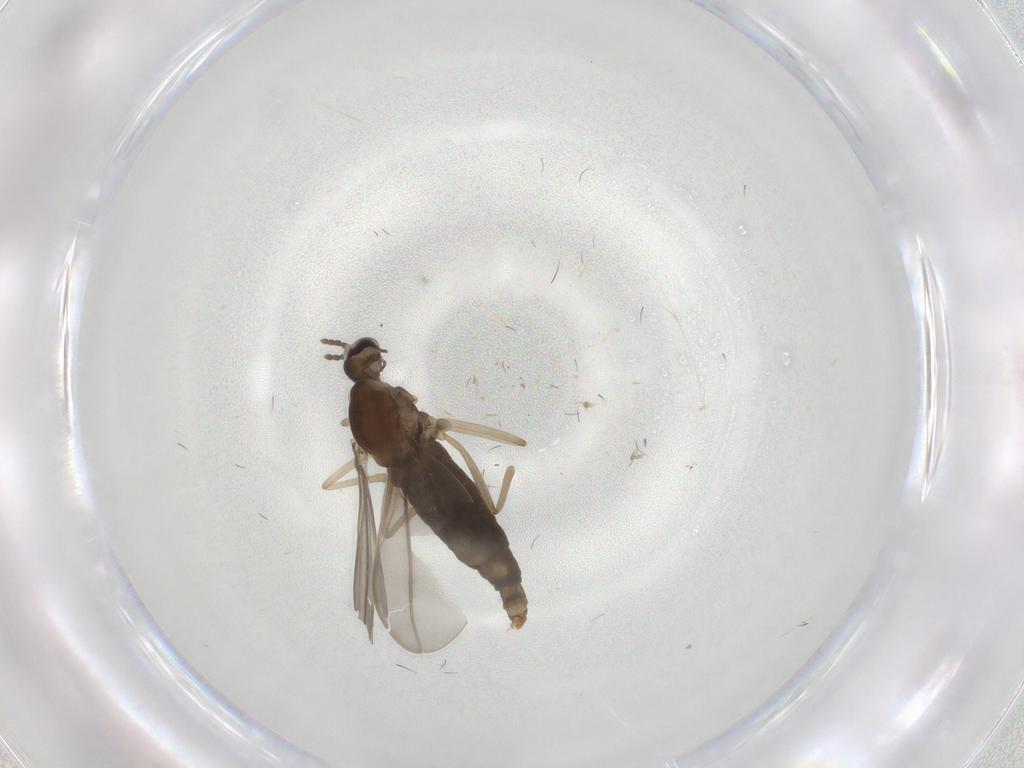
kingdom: Animalia
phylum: Arthropoda
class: Insecta
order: Diptera
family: Cecidomyiidae
